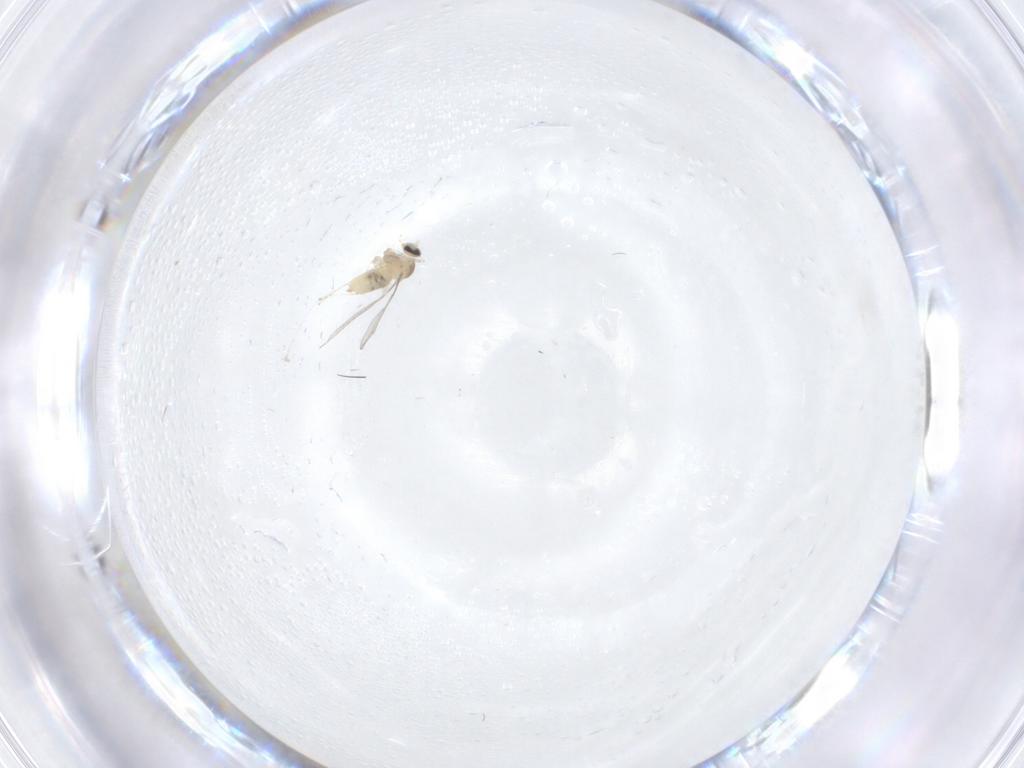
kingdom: Animalia
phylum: Arthropoda
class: Insecta
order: Diptera
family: Cecidomyiidae
